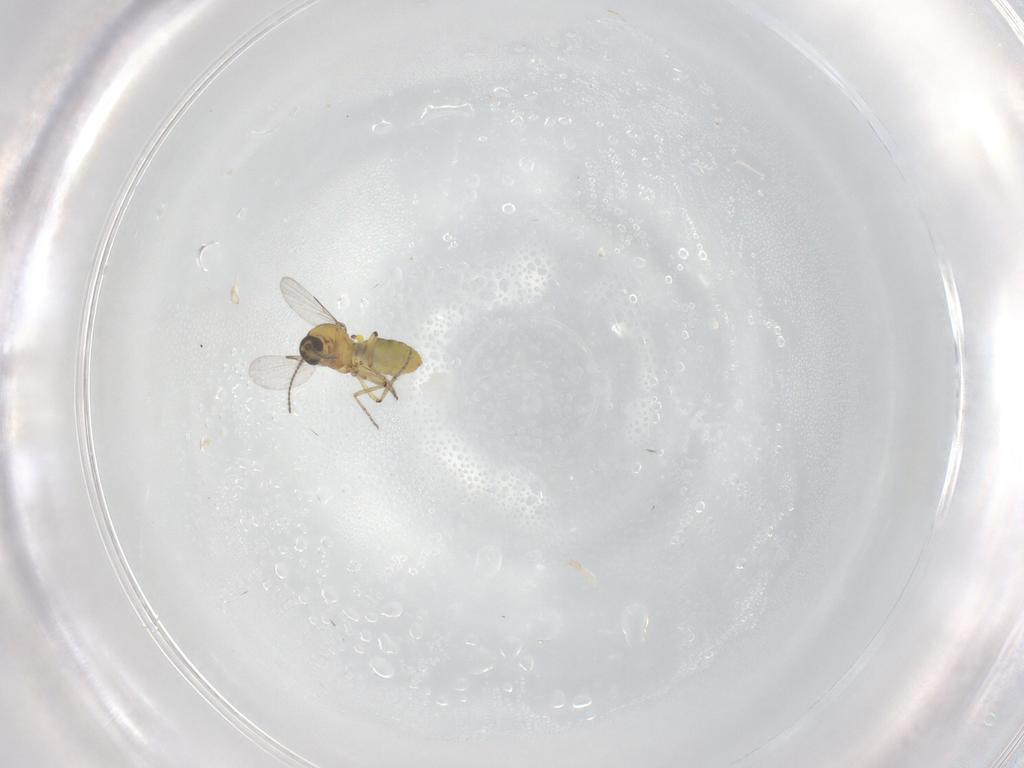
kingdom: Animalia
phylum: Arthropoda
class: Insecta
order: Diptera
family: Ceratopogonidae
